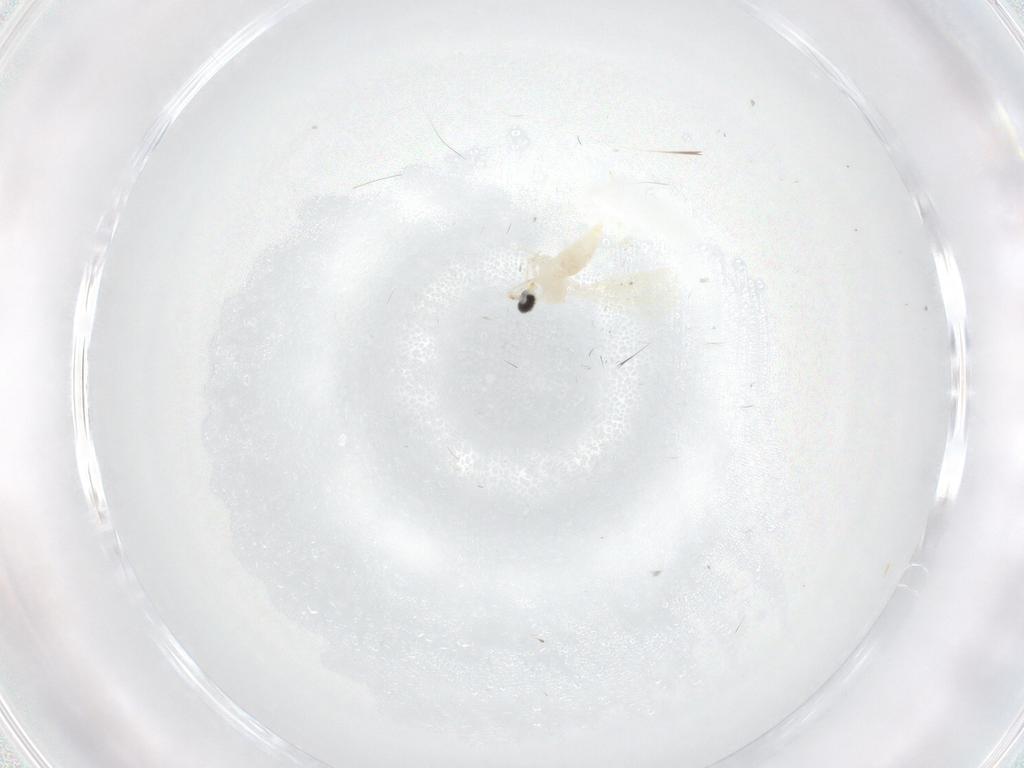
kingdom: Animalia
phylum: Arthropoda
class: Insecta
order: Diptera
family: Cecidomyiidae
